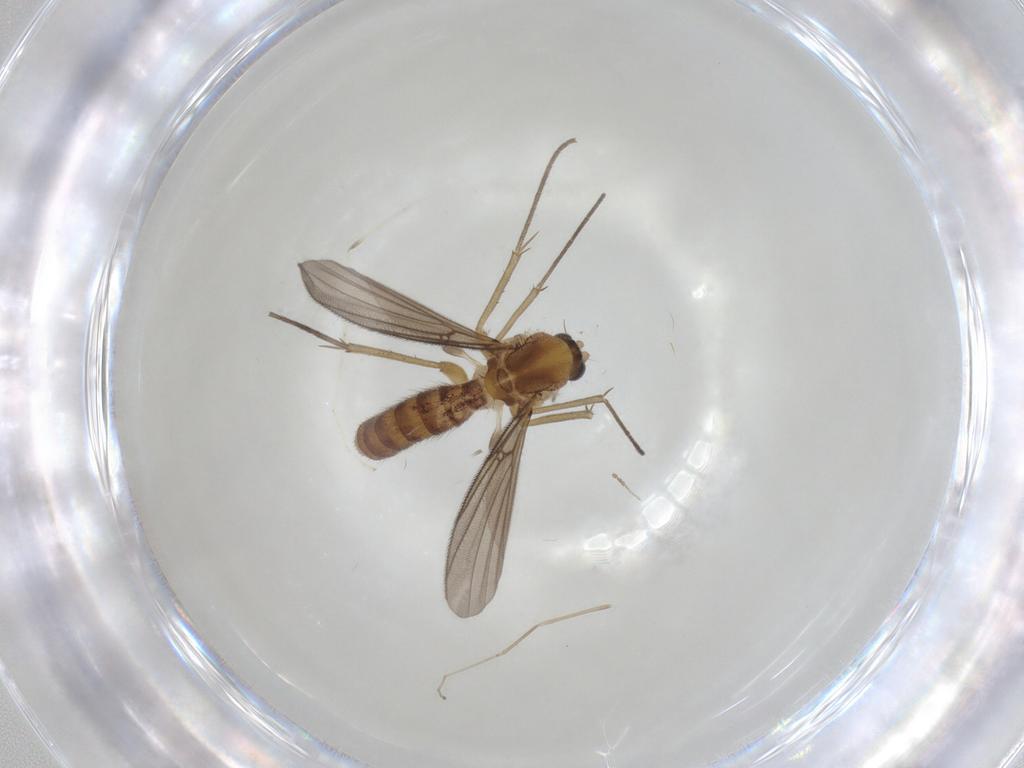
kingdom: Animalia
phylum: Arthropoda
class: Insecta
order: Diptera
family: Mycetophilidae
